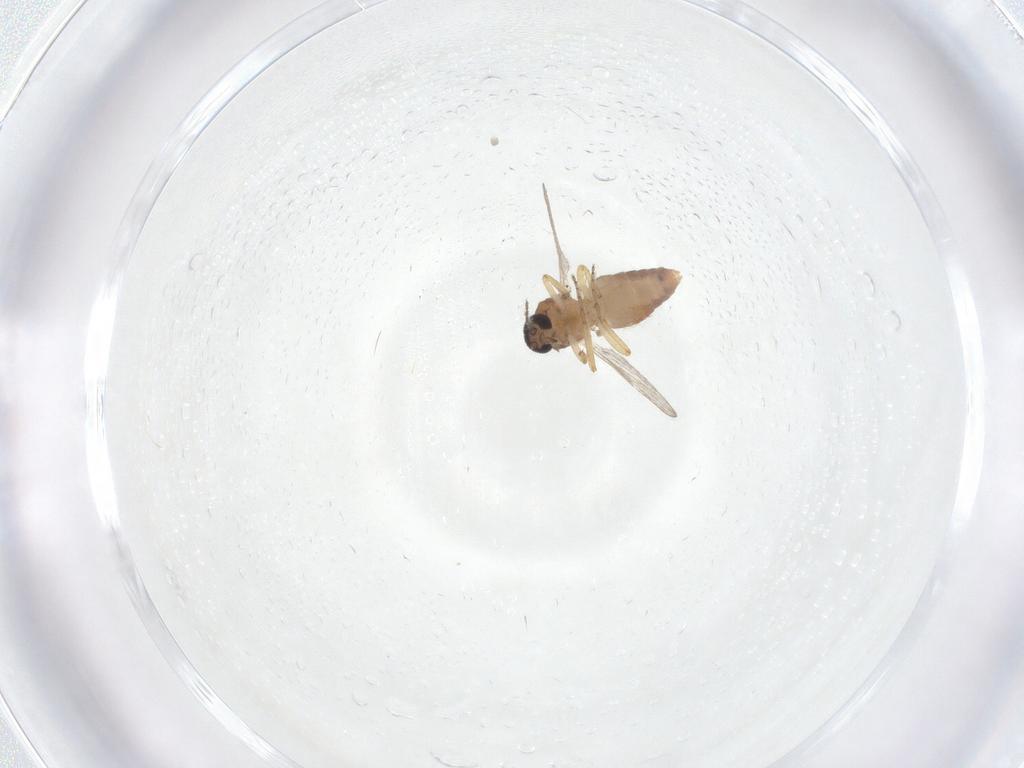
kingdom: Animalia
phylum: Arthropoda
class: Insecta
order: Diptera
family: Ceratopogonidae
